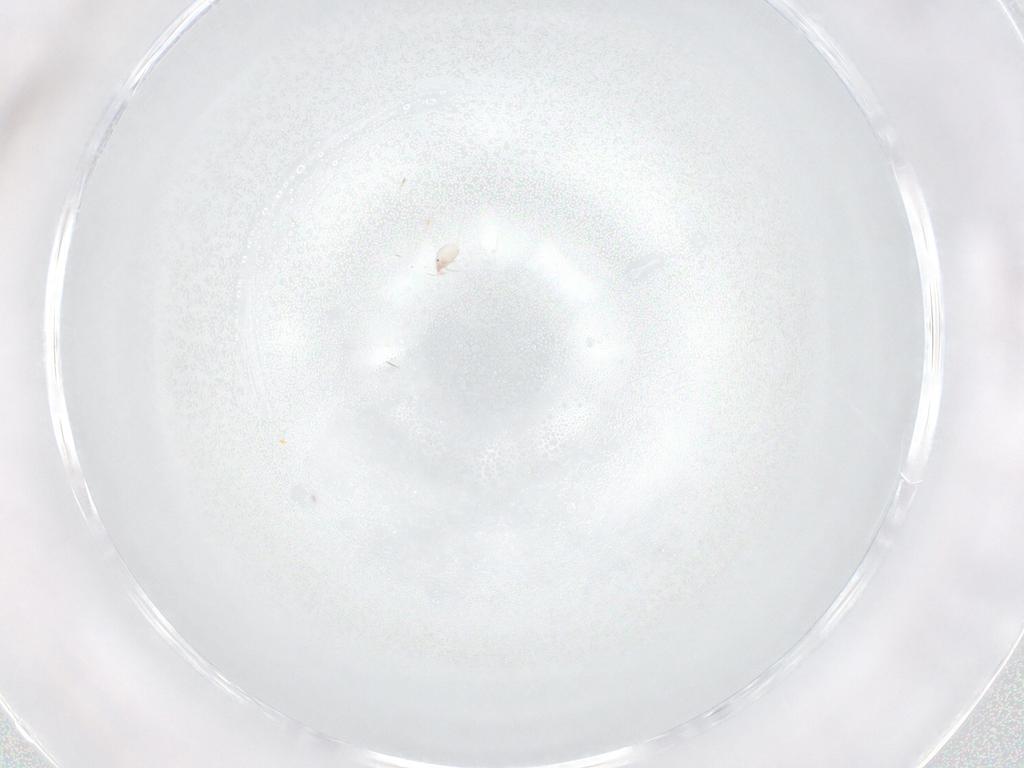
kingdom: Animalia
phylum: Arthropoda
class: Arachnida
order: Trombidiformes
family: Hygrobatidae
